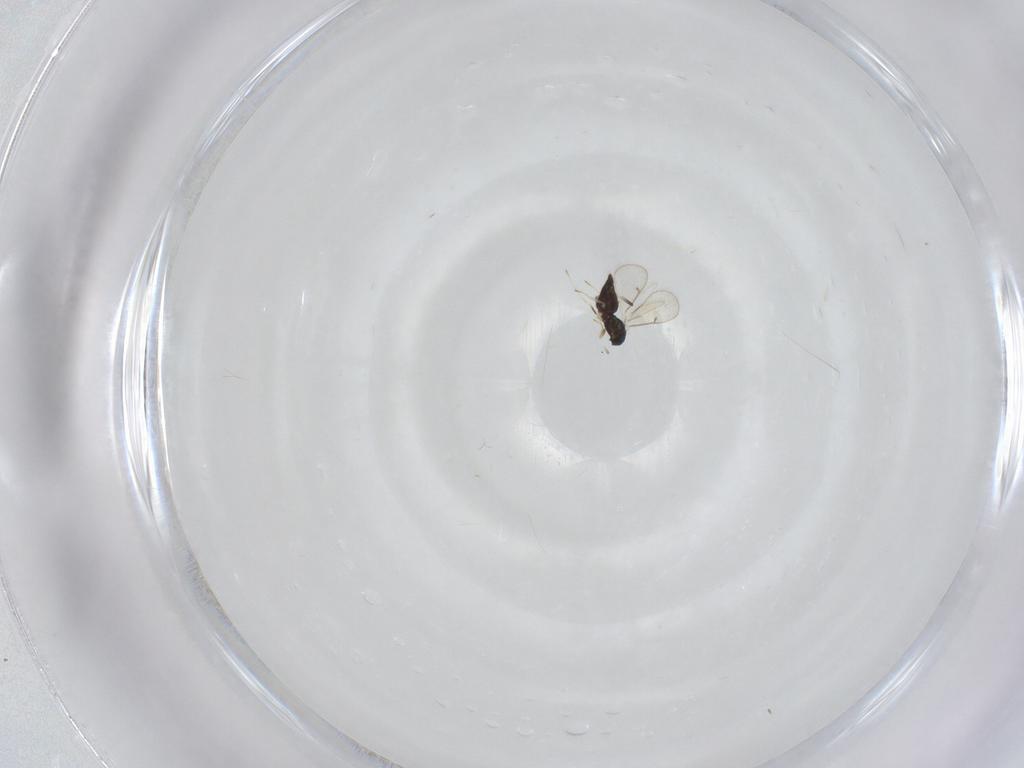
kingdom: Animalia
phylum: Arthropoda
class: Insecta
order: Hymenoptera
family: Eulophidae
